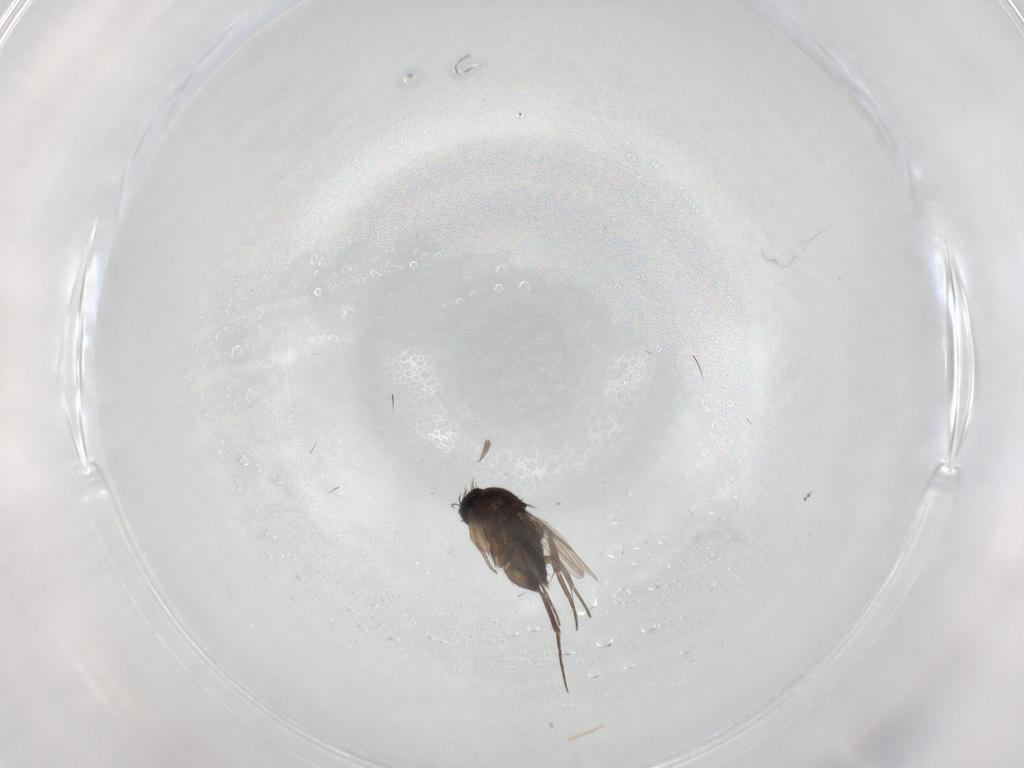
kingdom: Animalia
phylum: Arthropoda
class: Insecta
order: Diptera
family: Phoridae
